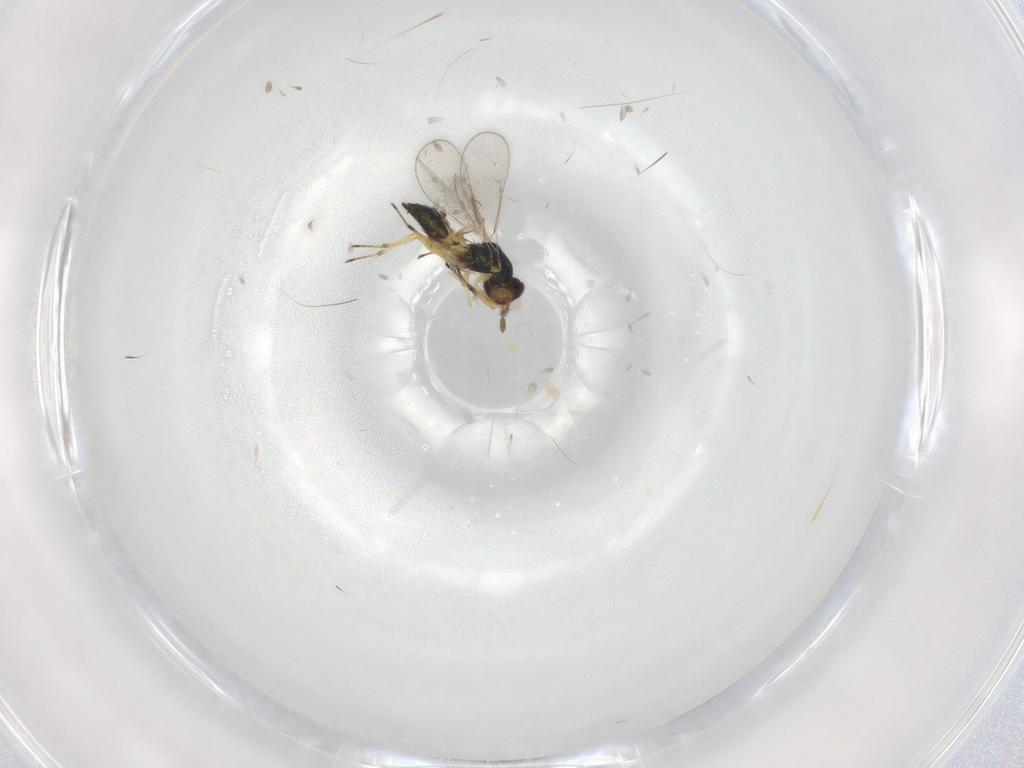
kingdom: Animalia
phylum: Arthropoda
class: Insecta
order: Hymenoptera
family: Eulophidae
